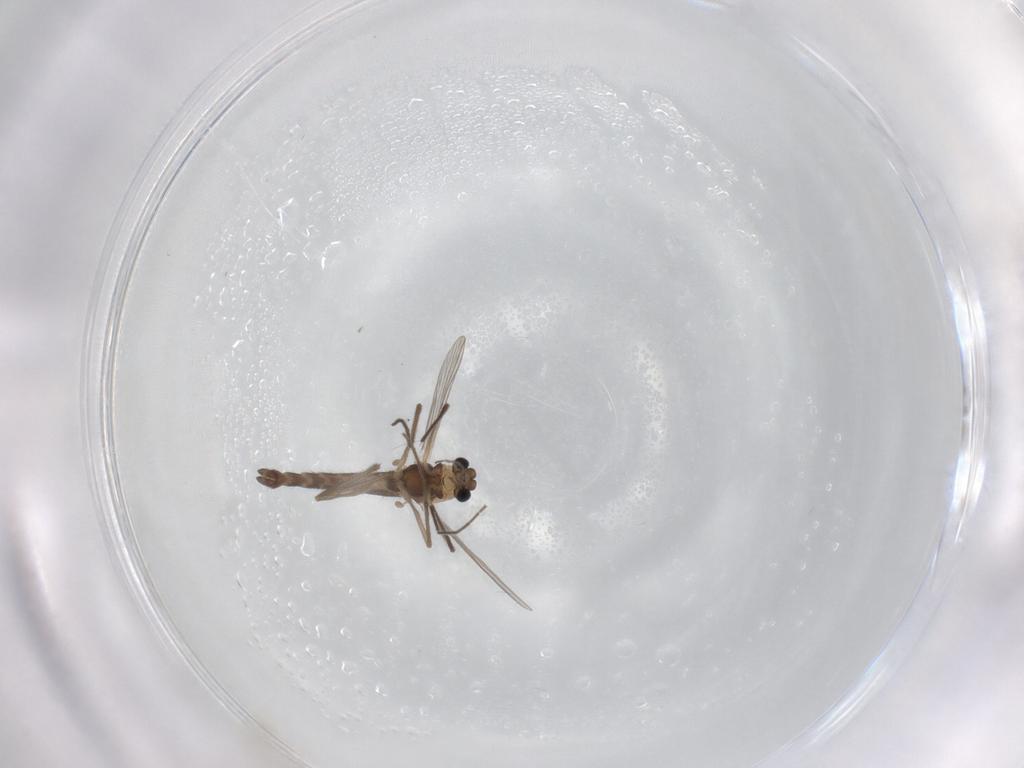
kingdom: Animalia
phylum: Arthropoda
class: Insecta
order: Diptera
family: Chironomidae
